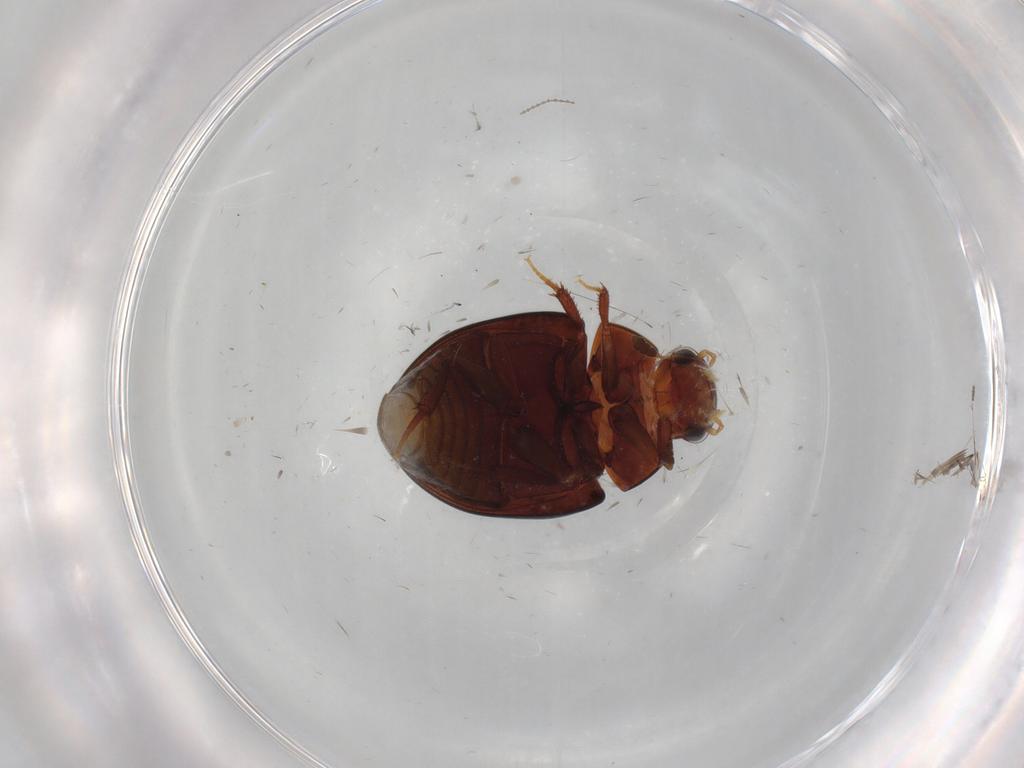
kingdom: Animalia
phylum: Arthropoda
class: Insecta
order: Coleoptera
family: Hydrophilidae
